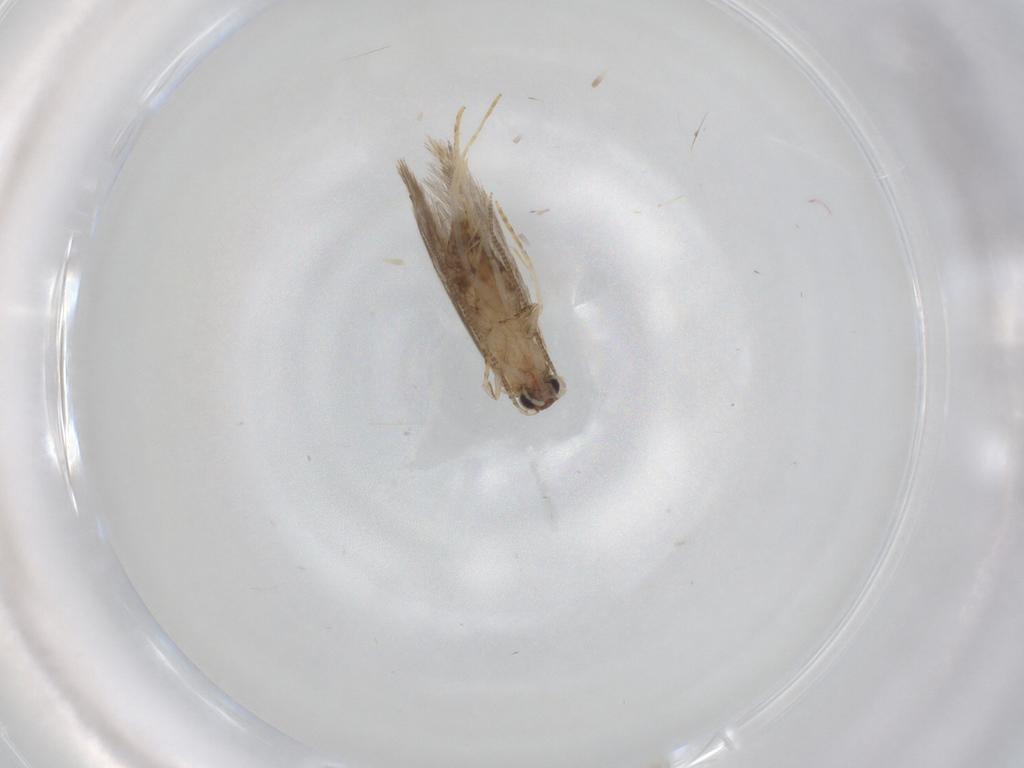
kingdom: Animalia
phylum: Arthropoda
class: Insecta
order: Lepidoptera
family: Tineidae
